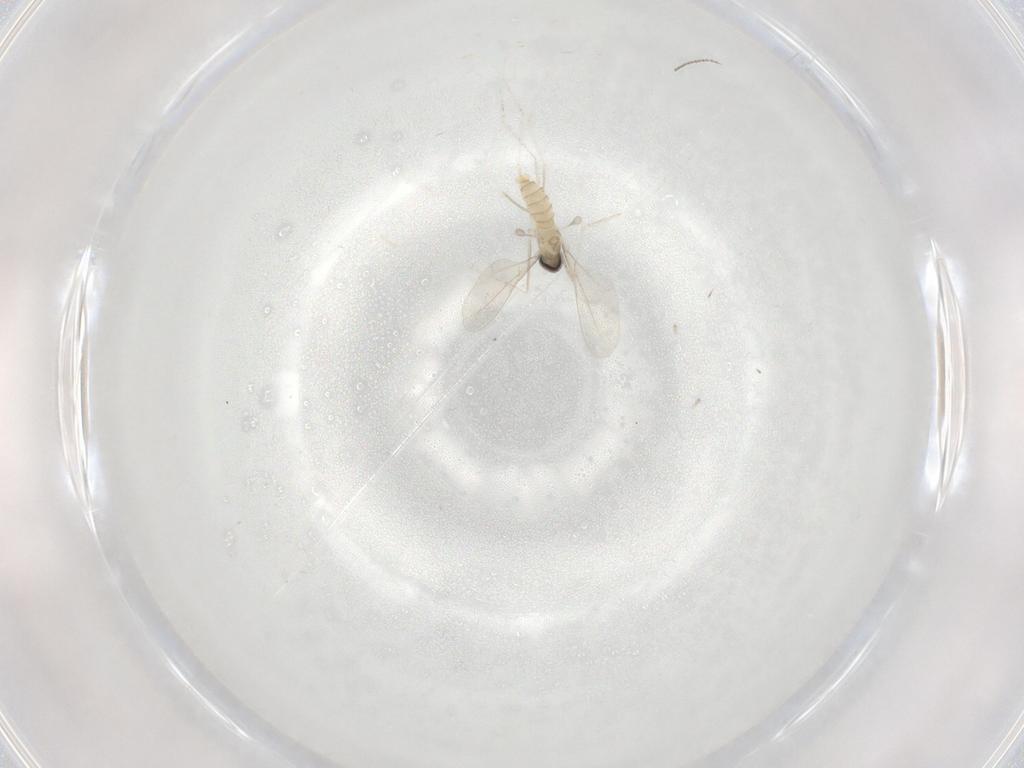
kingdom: Animalia
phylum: Arthropoda
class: Insecta
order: Diptera
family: Cecidomyiidae
